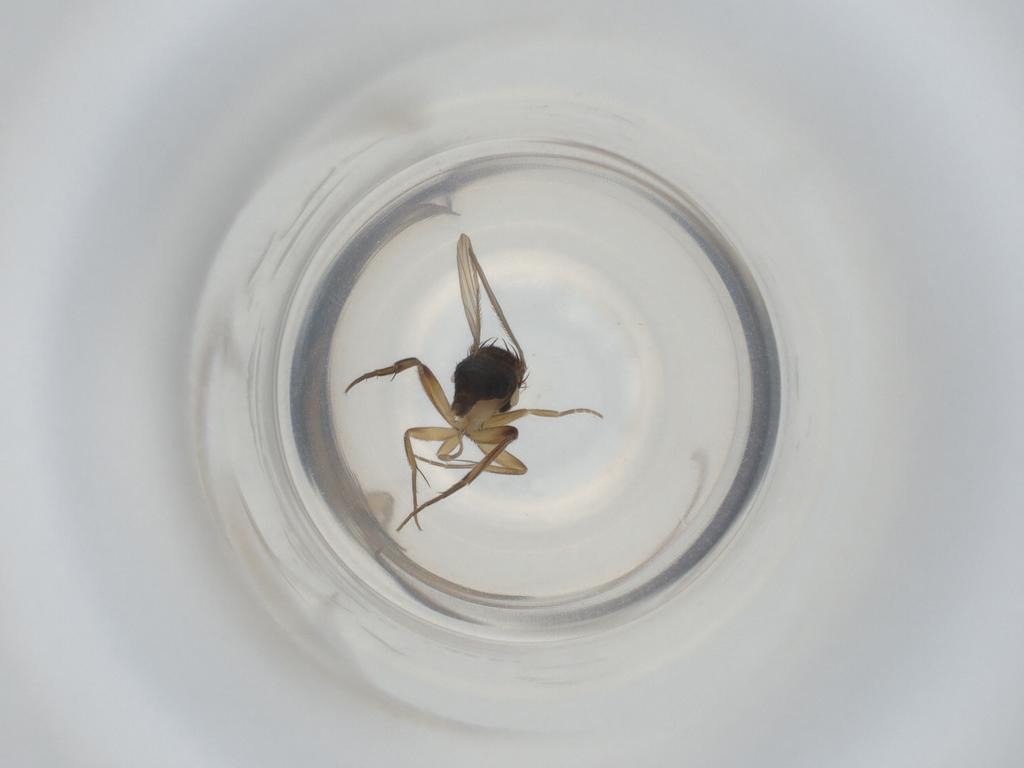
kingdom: Animalia
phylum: Arthropoda
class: Insecta
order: Diptera
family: Phoridae
